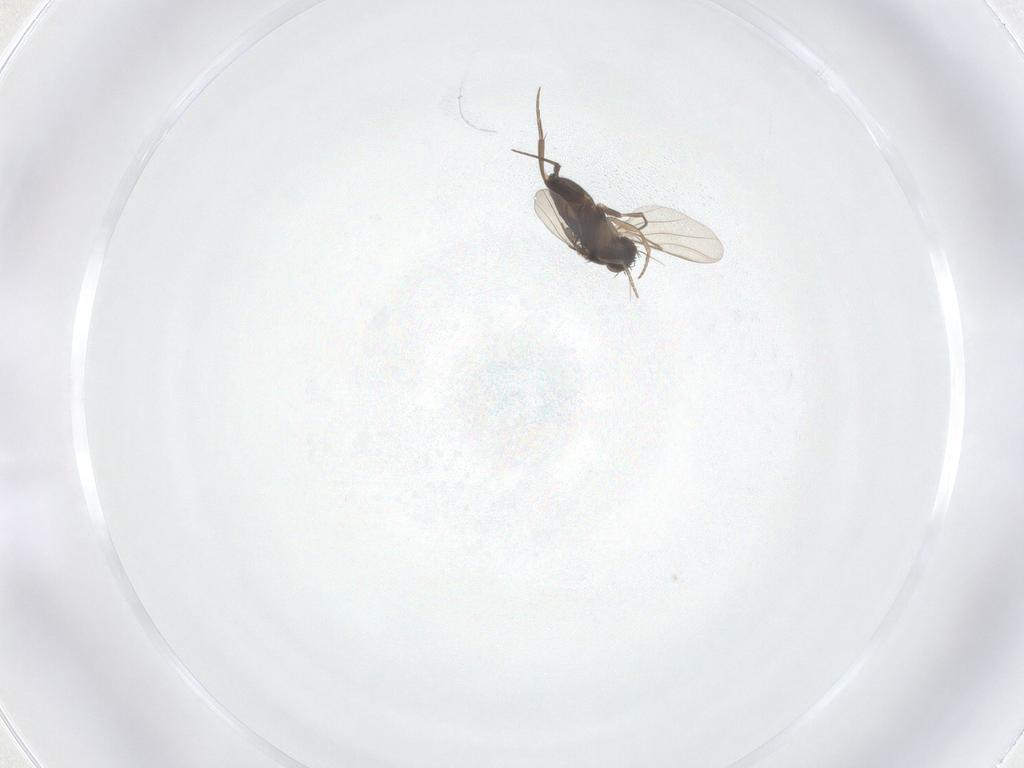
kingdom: Animalia
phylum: Arthropoda
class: Insecta
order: Diptera
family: Phoridae
